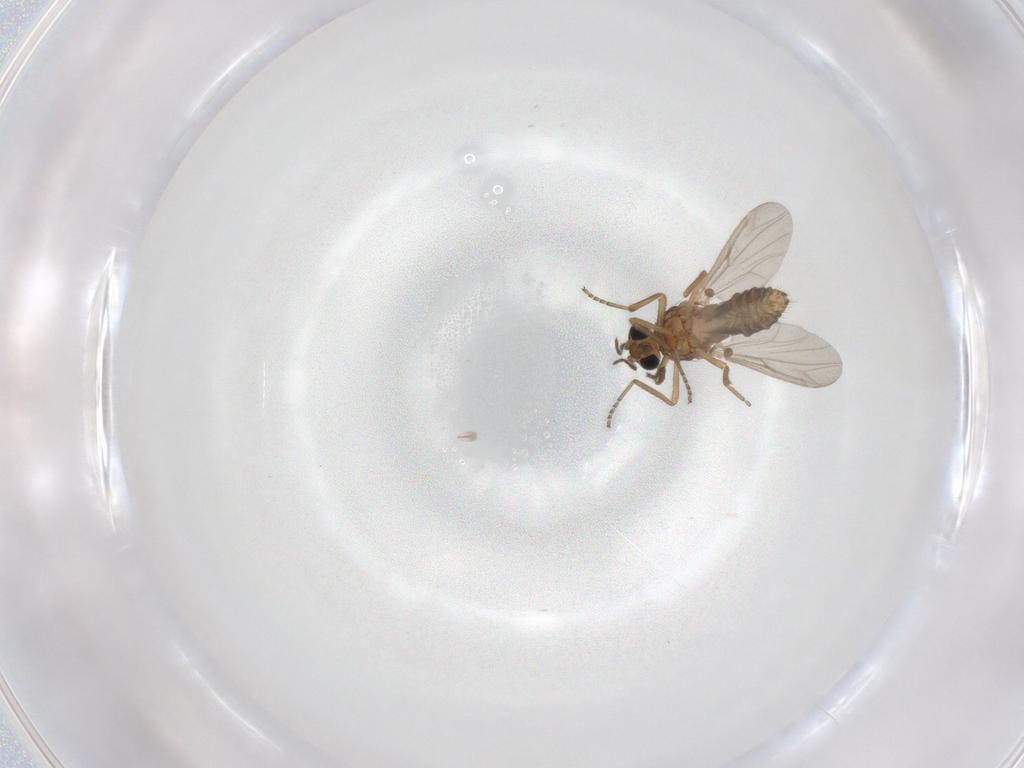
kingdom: Animalia
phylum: Arthropoda
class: Insecta
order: Diptera
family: Ceratopogonidae
